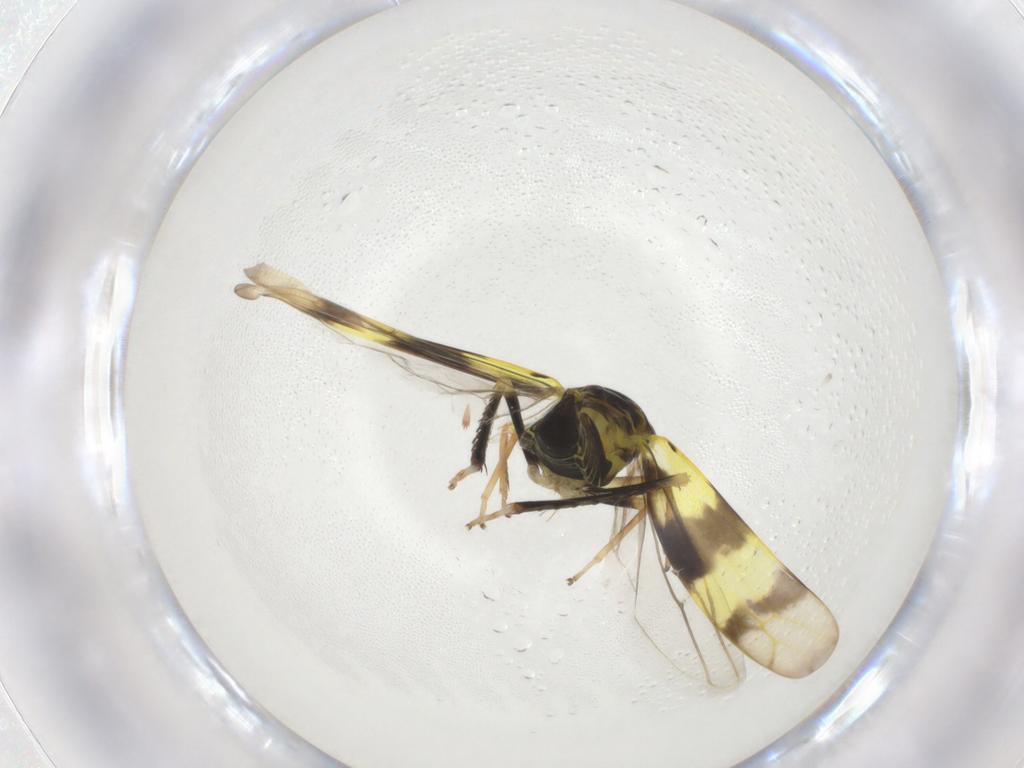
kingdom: Animalia
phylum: Arthropoda
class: Insecta
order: Hemiptera
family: Cicadellidae
